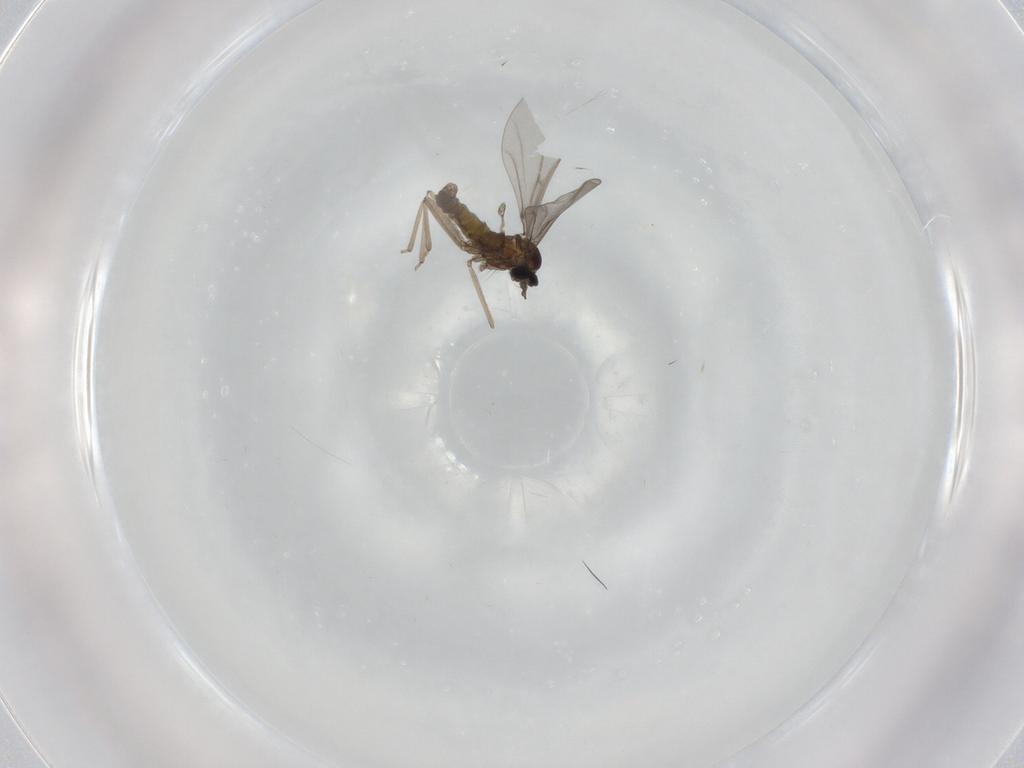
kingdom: Animalia
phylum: Arthropoda
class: Insecta
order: Diptera
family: Cecidomyiidae
